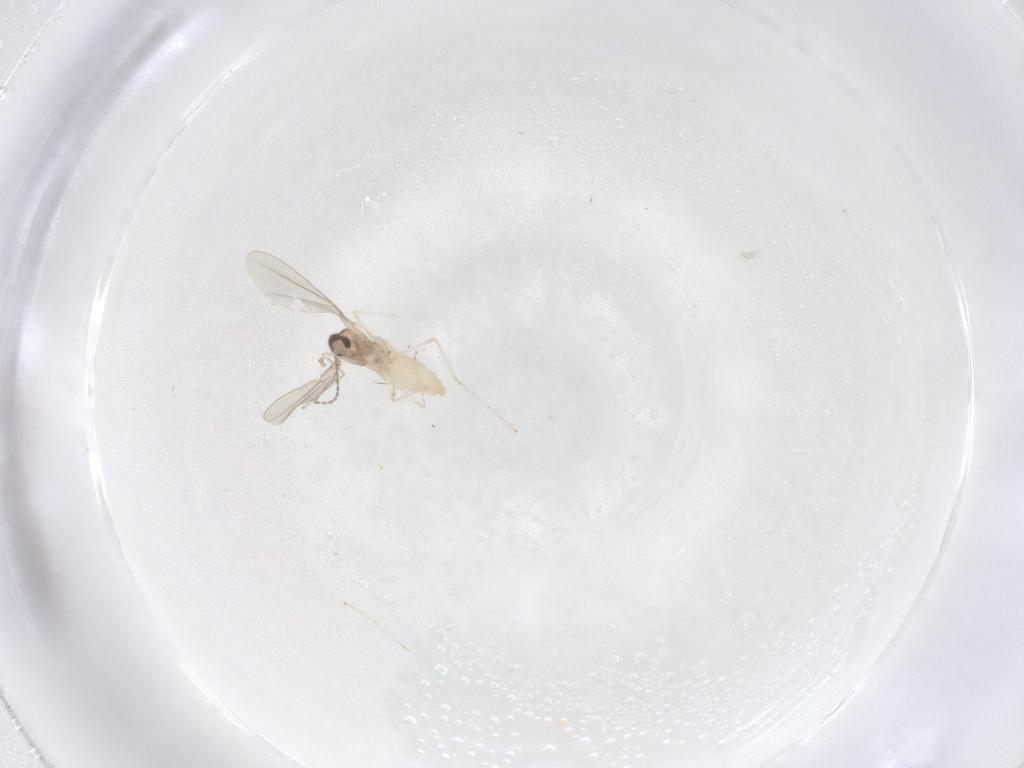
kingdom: Animalia
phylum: Arthropoda
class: Insecta
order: Diptera
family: Cecidomyiidae
